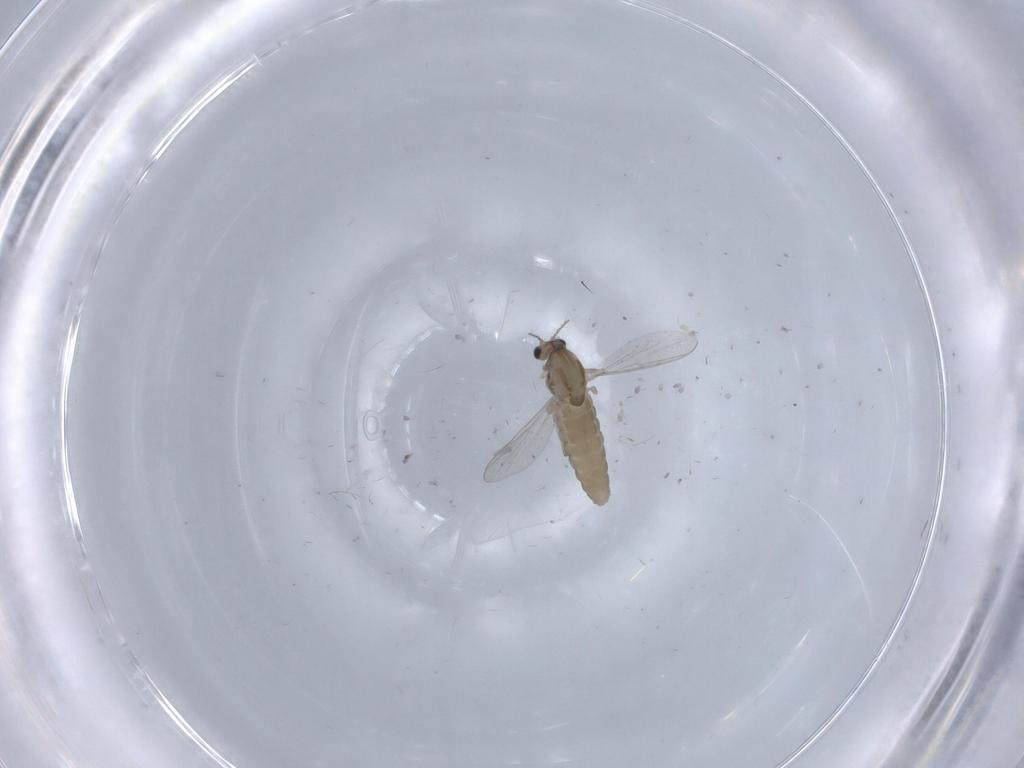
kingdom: Animalia
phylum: Arthropoda
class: Insecta
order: Diptera
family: Chironomidae
